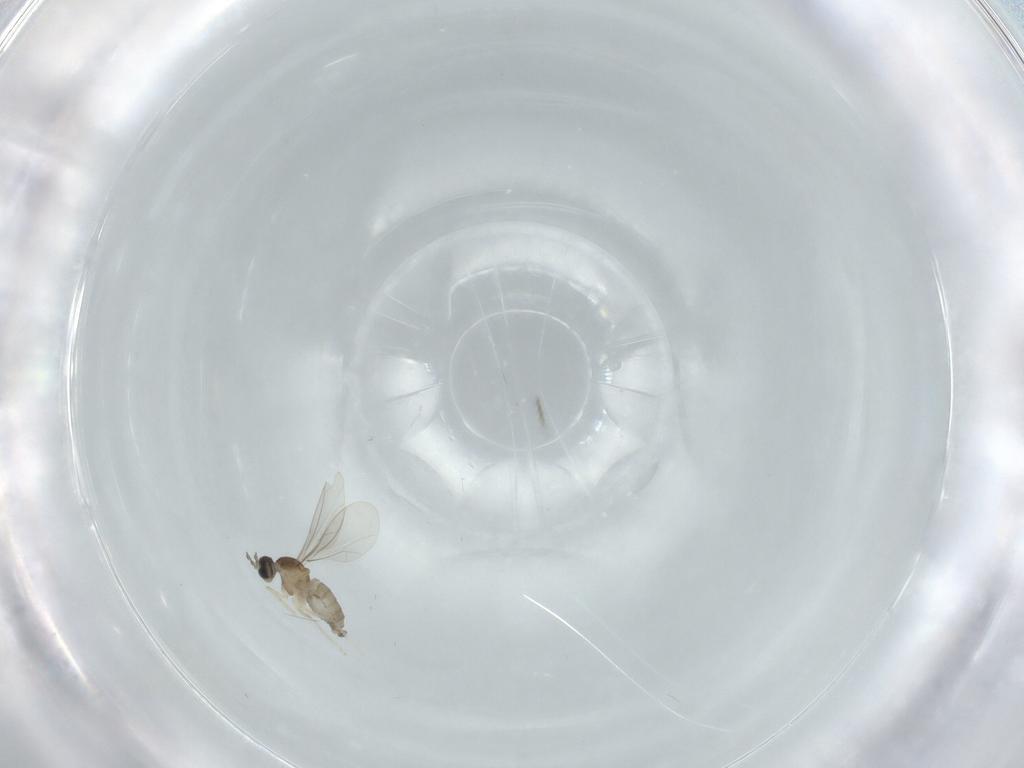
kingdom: Animalia
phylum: Arthropoda
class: Insecta
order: Diptera
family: Cecidomyiidae
